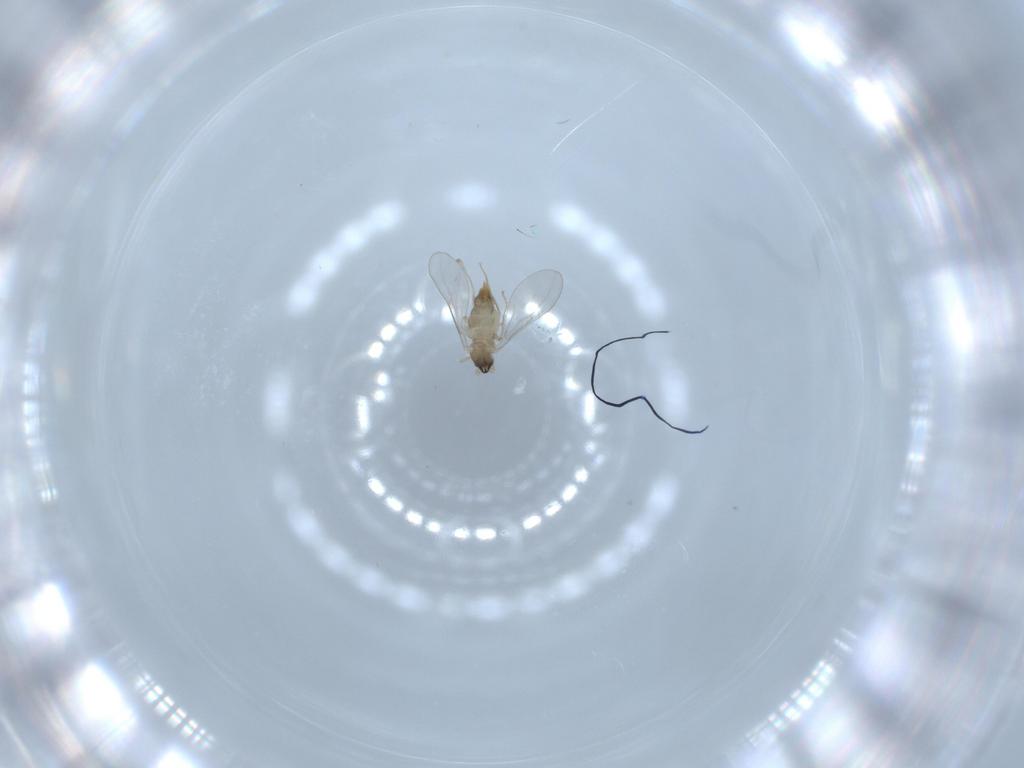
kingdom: Animalia
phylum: Arthropoda
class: Insecta
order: Diptera
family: Cecidomyiidae
